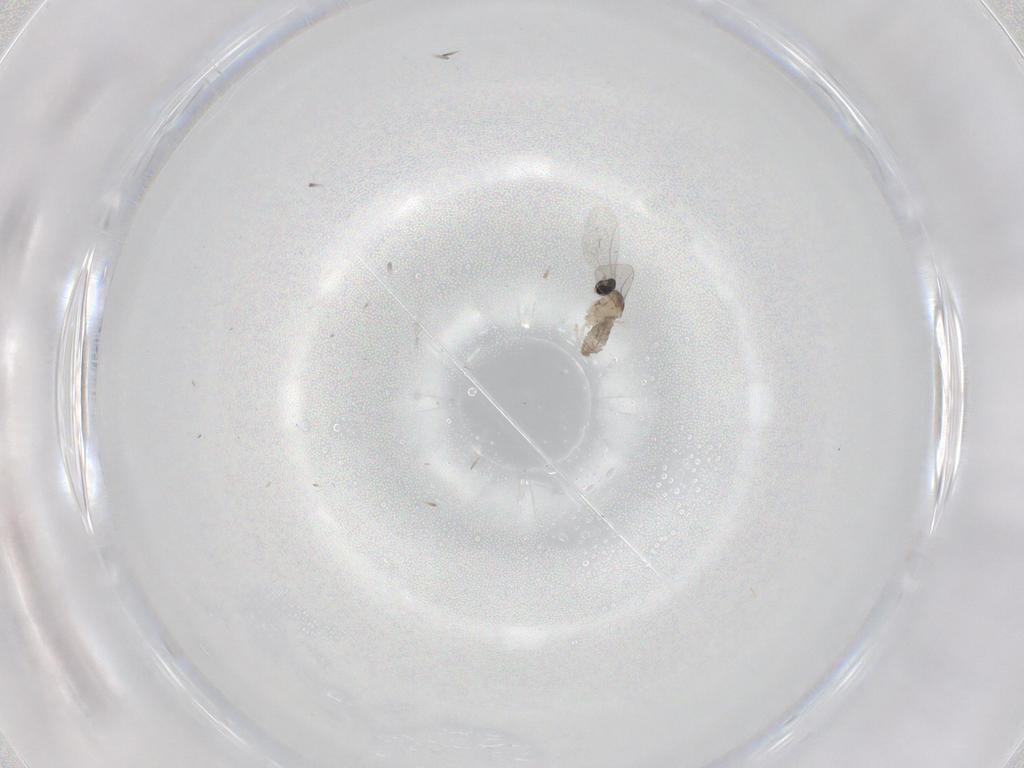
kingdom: Animalia
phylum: Arthropoda
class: Insecta
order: Diptera
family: Cecidomyiidae
